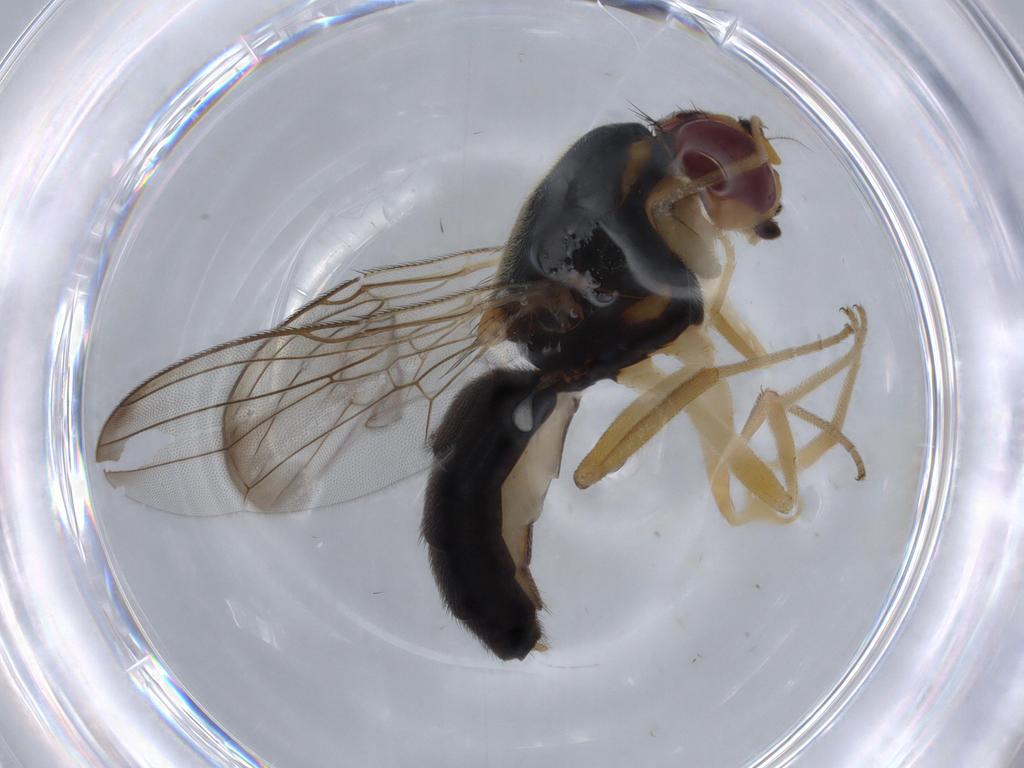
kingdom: Animalia
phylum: Arthropoda
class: Insecta
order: Diptera
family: Psilidae
